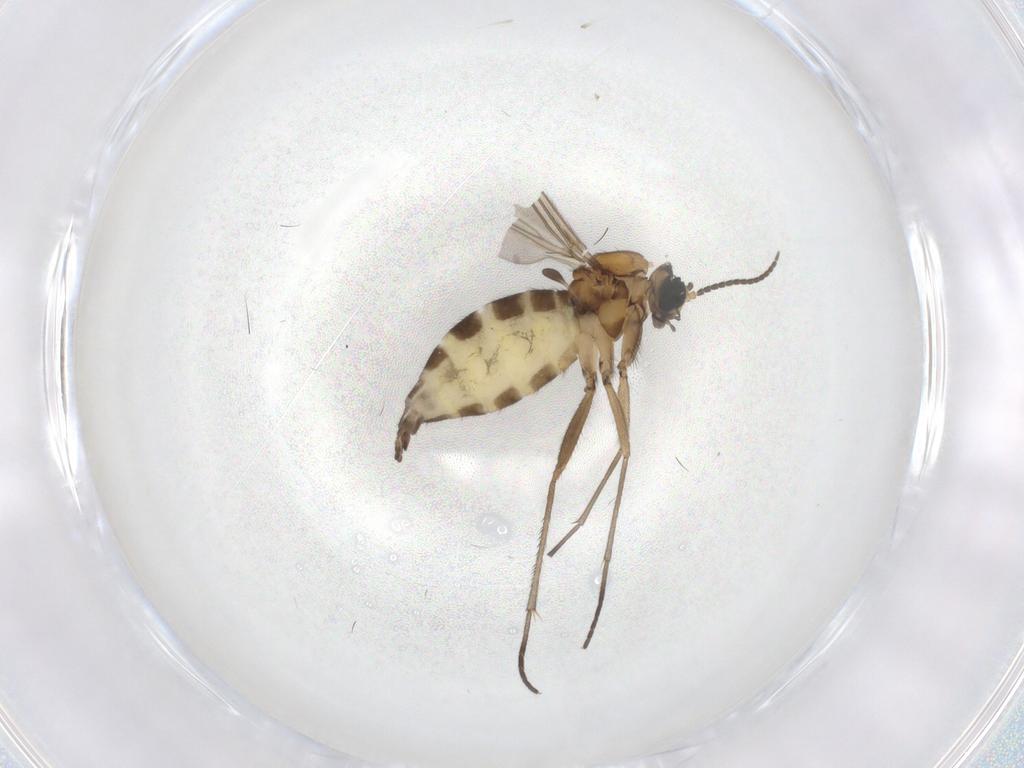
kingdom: Animalia
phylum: Arthropoda
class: Insecta
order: Diptera
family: Sciaridae
